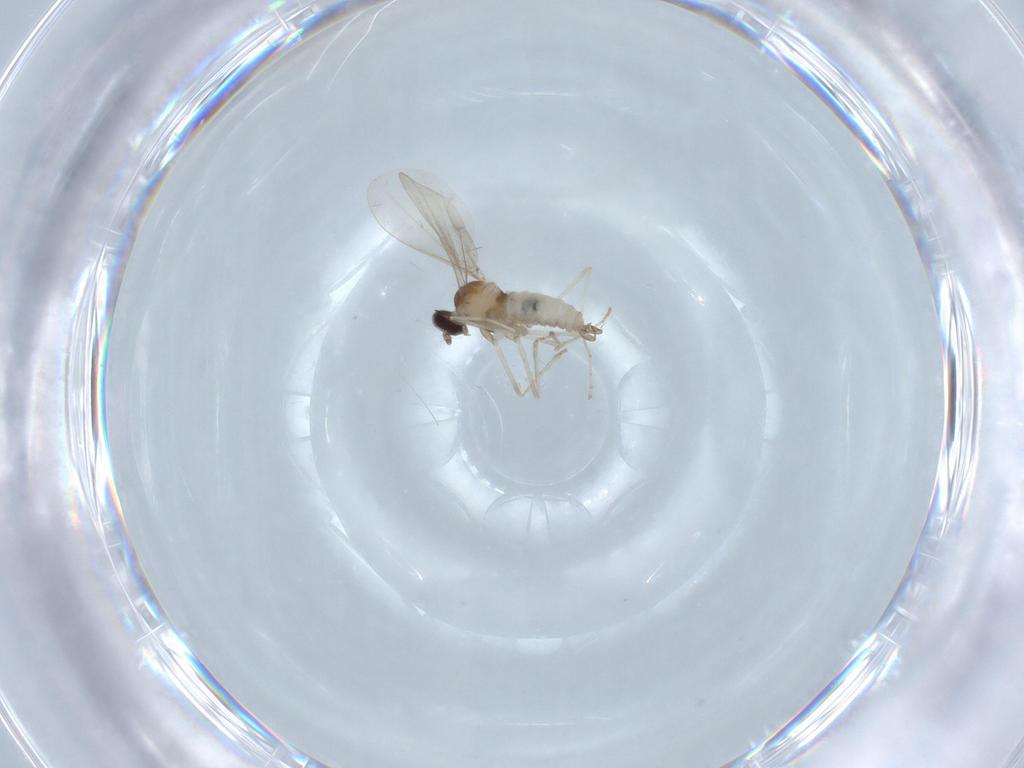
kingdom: Animalia
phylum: Arthropoda
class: Insecta
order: Diptera
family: Cecidomyiidae
